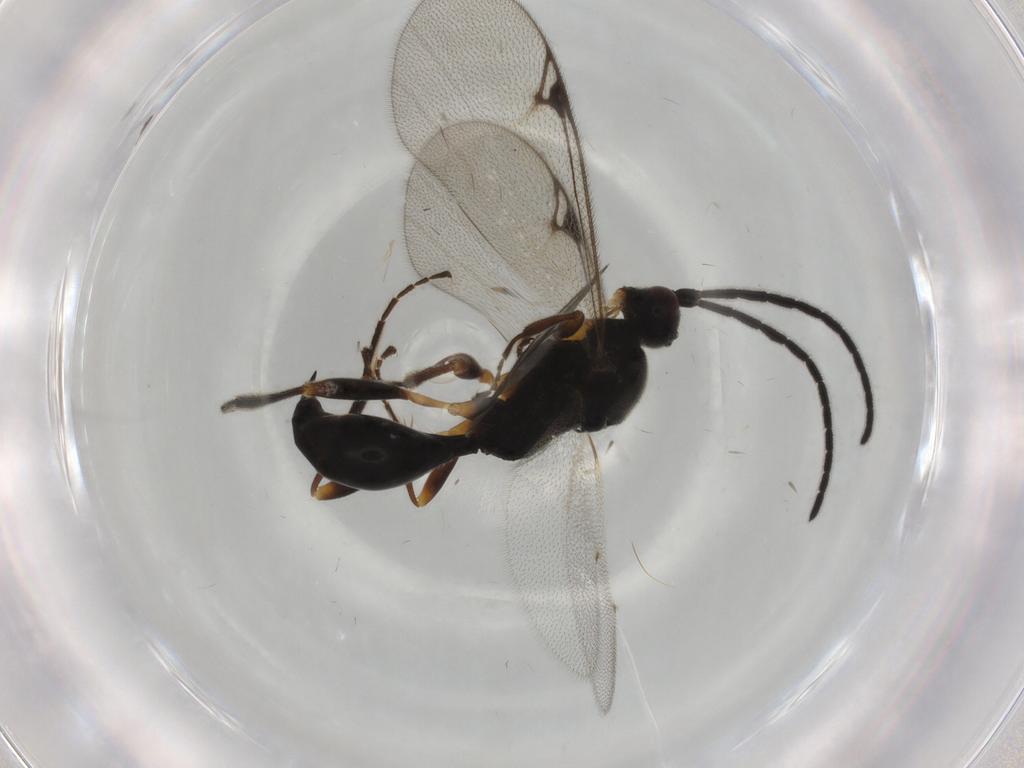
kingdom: Animalia
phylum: Arthropoda
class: Insecta
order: Hymenoptera
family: Proctotrupidae
